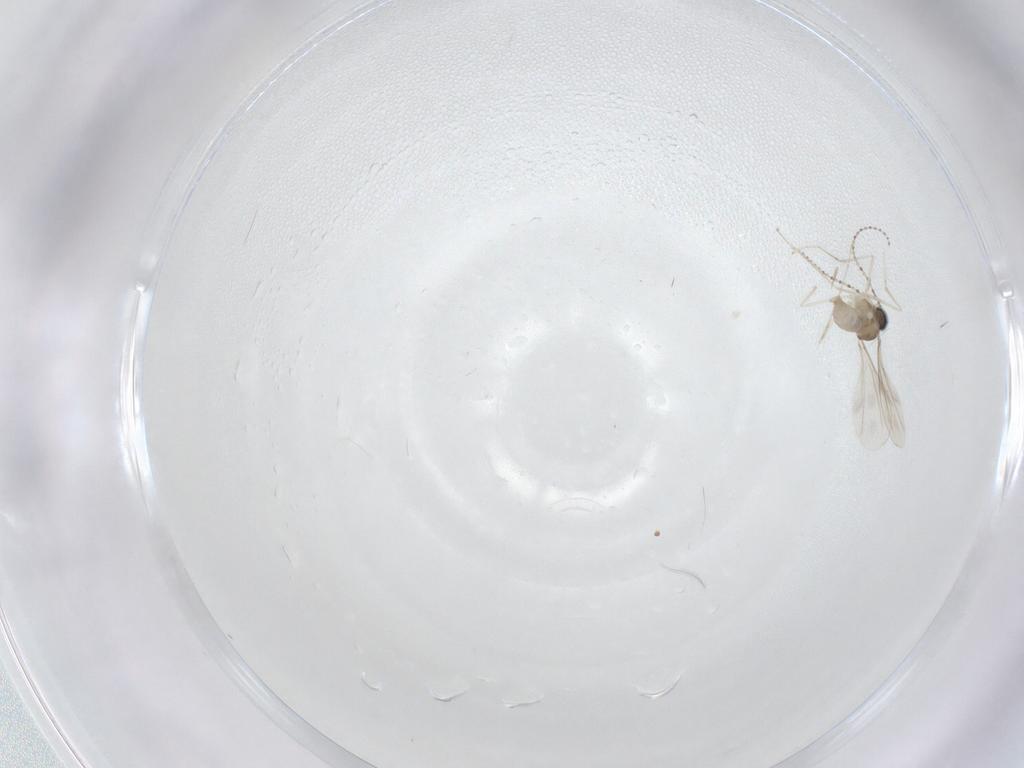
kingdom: Animalia
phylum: Arthropoda
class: Insecta
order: Diptera
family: Cecidomyiidae
